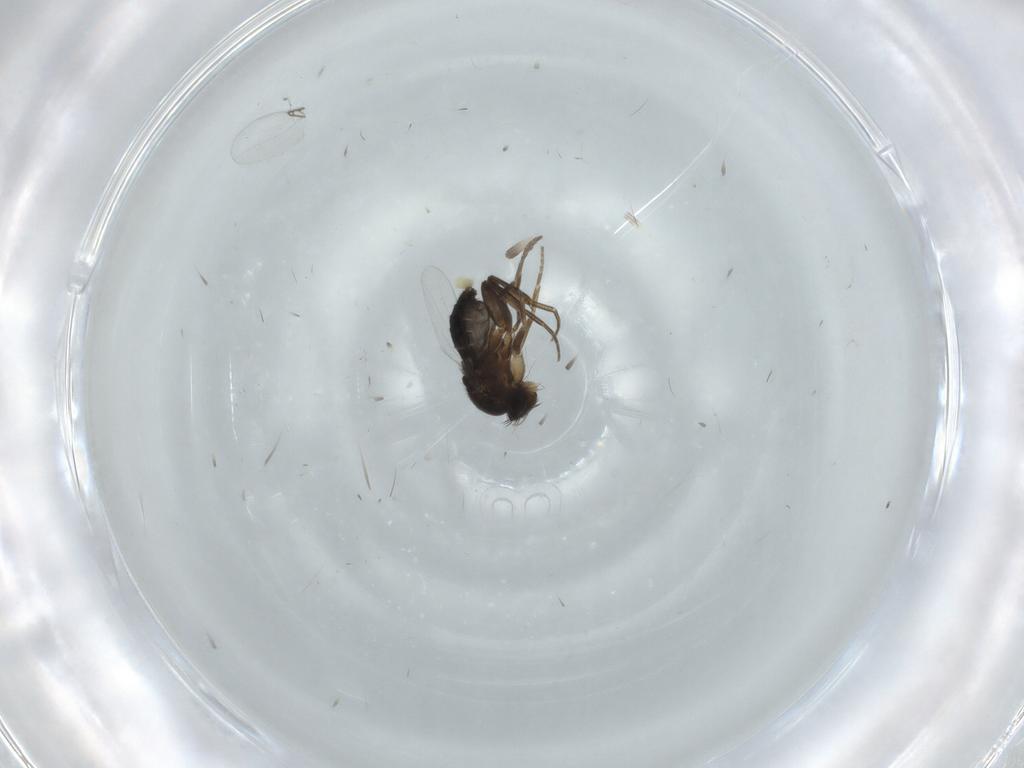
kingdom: Animalia
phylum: Arthropoda
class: Insecta
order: Diptera
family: Phoridae
